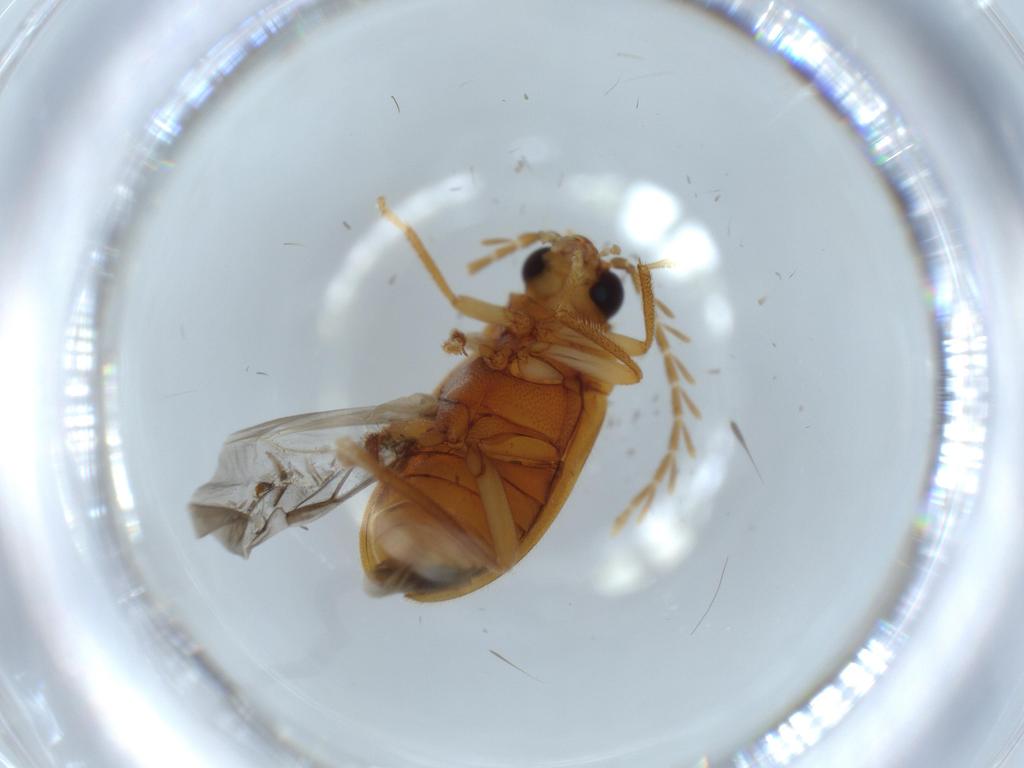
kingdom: Animalia
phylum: Arthropoda
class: Insecta
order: Coleoptera
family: Ptilodactylidae
